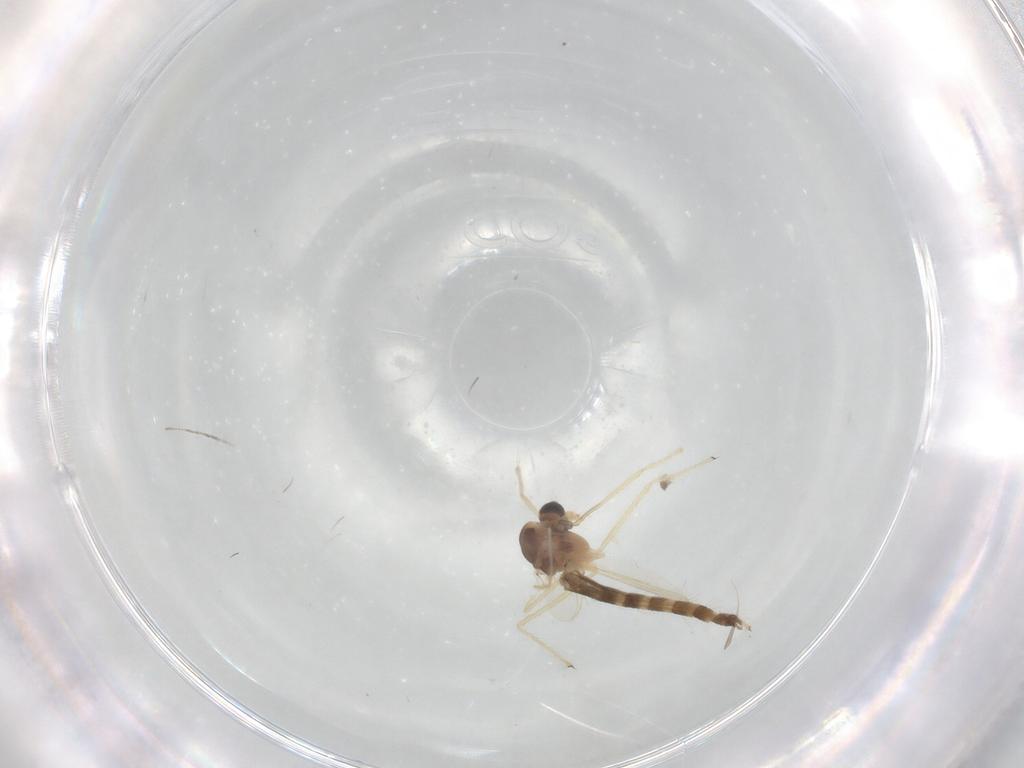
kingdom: Animalia
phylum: Arthropoda
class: Insecta
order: Diptera
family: Chironomidae
